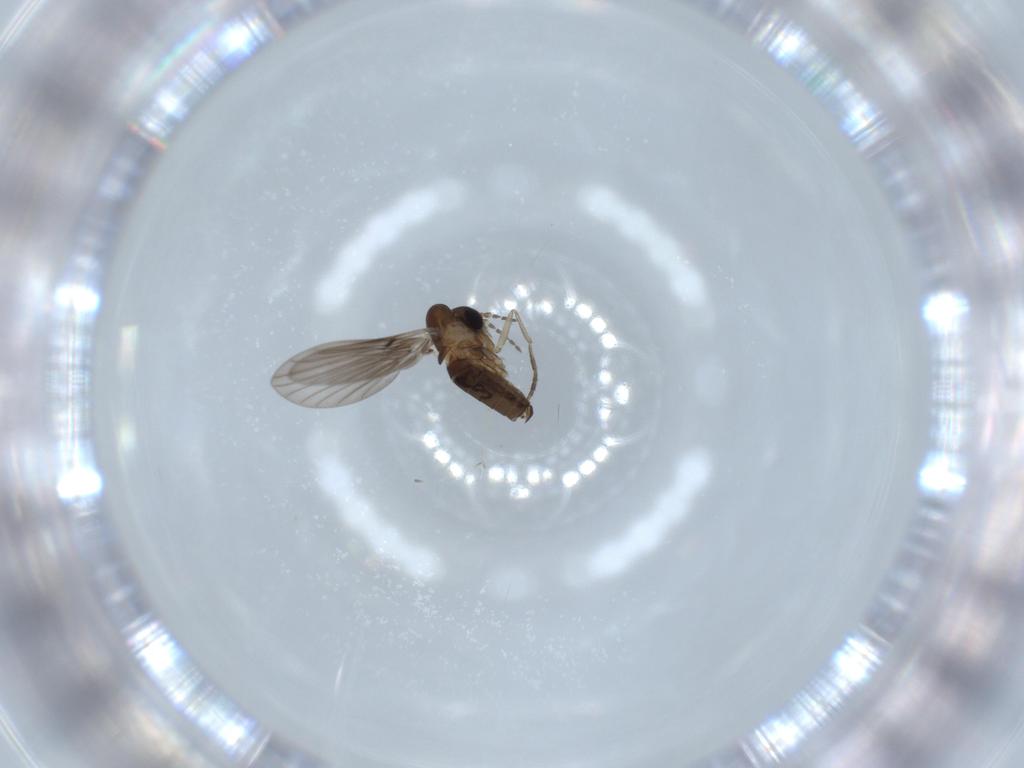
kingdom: Animalia
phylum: Arthropoda
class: Insecta
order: Diptera
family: Psychodidae
